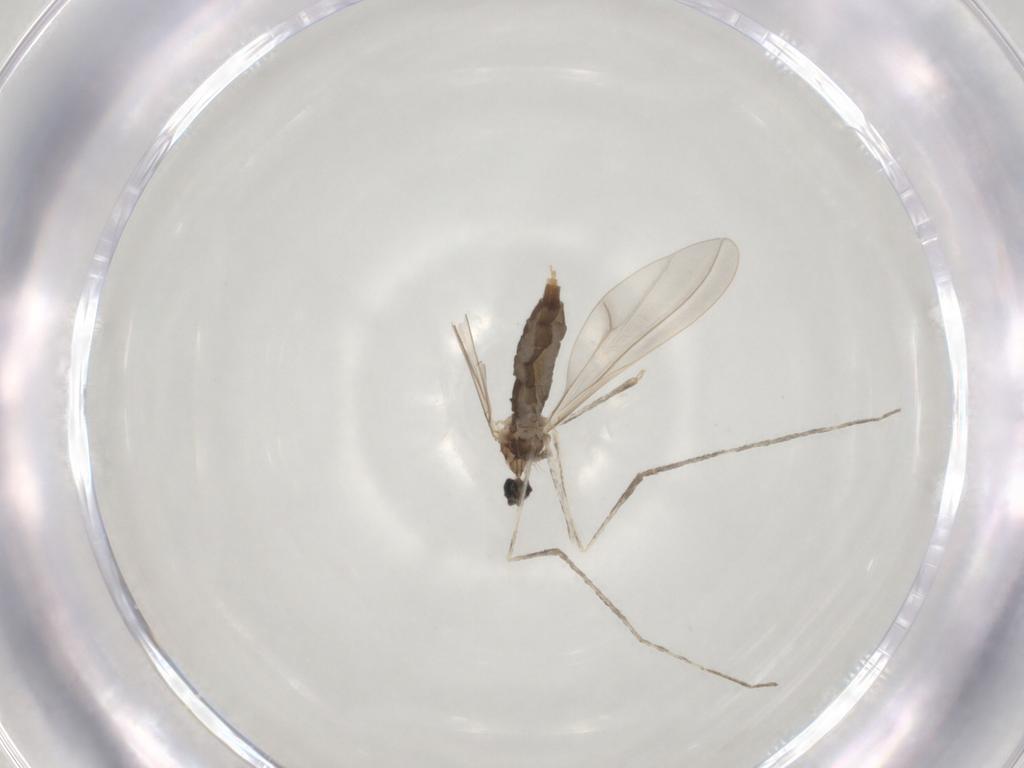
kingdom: Animalia
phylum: Arthropoda
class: Insecta
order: Diptera
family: Cecidomyiidae
